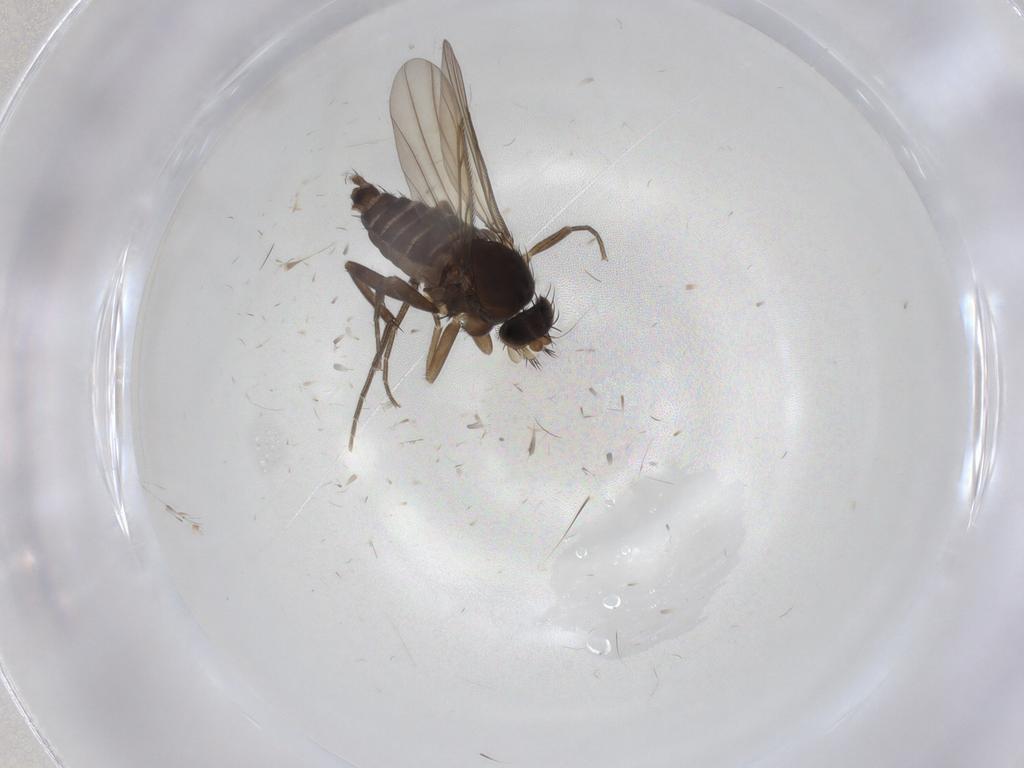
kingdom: Animalia
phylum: Arthropoda
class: Insecta
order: Diptera
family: Phoridae
